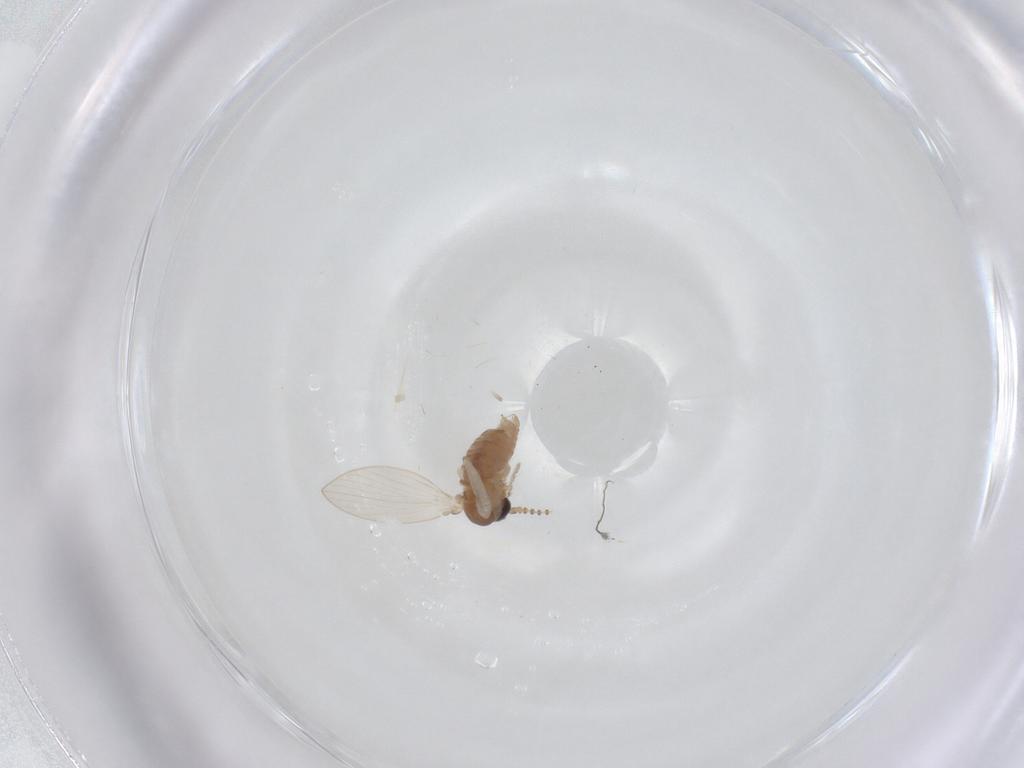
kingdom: Animalia
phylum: Arthropoda
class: Insecta
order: Diptera
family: Psychodidae
